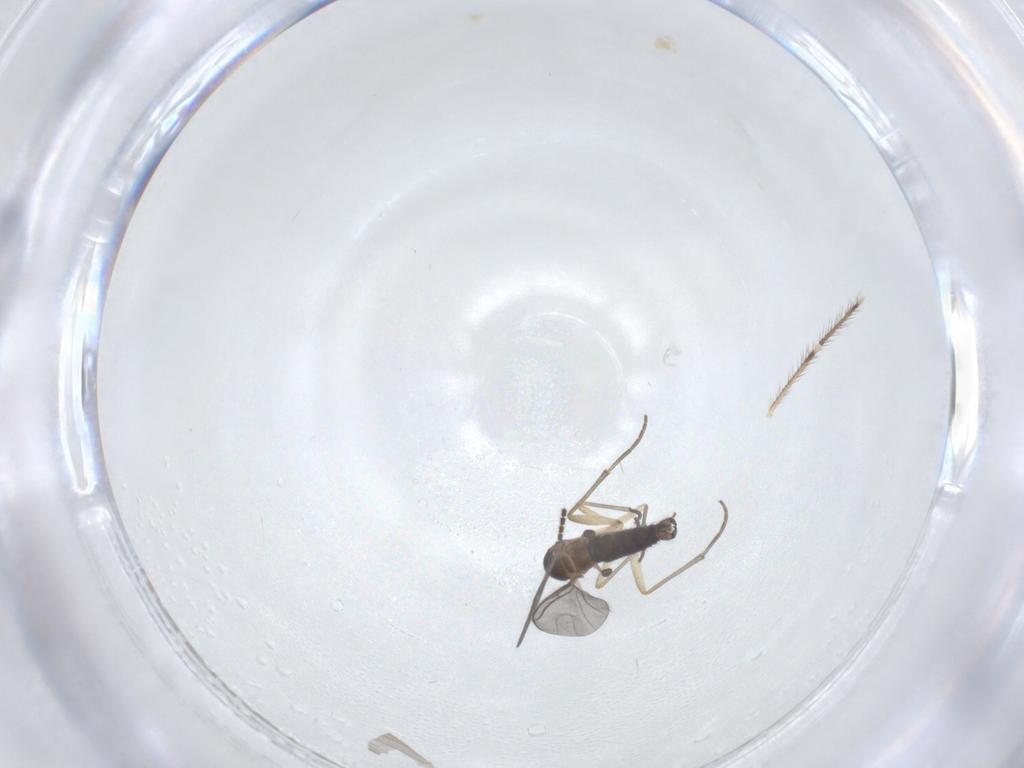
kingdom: Animalia
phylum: Arthropoda
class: Insecta
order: Diptera
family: Sciaridae
